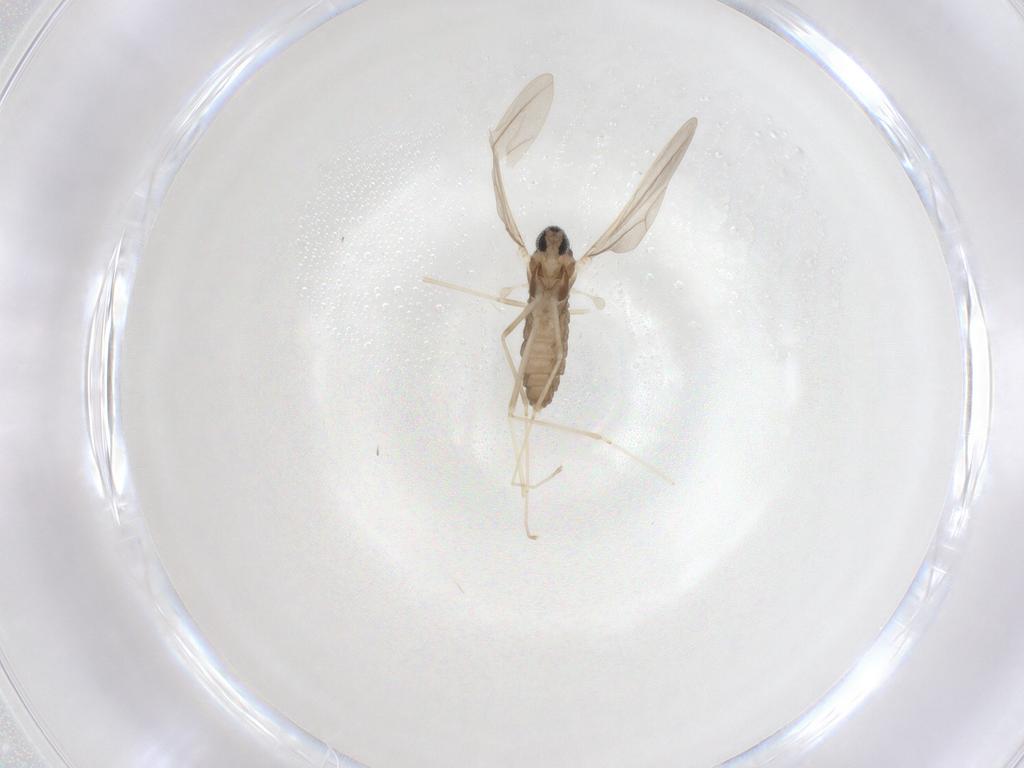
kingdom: Animalia
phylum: Arthropoda
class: Insecta
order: Diptera
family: Cecidomyiidae
